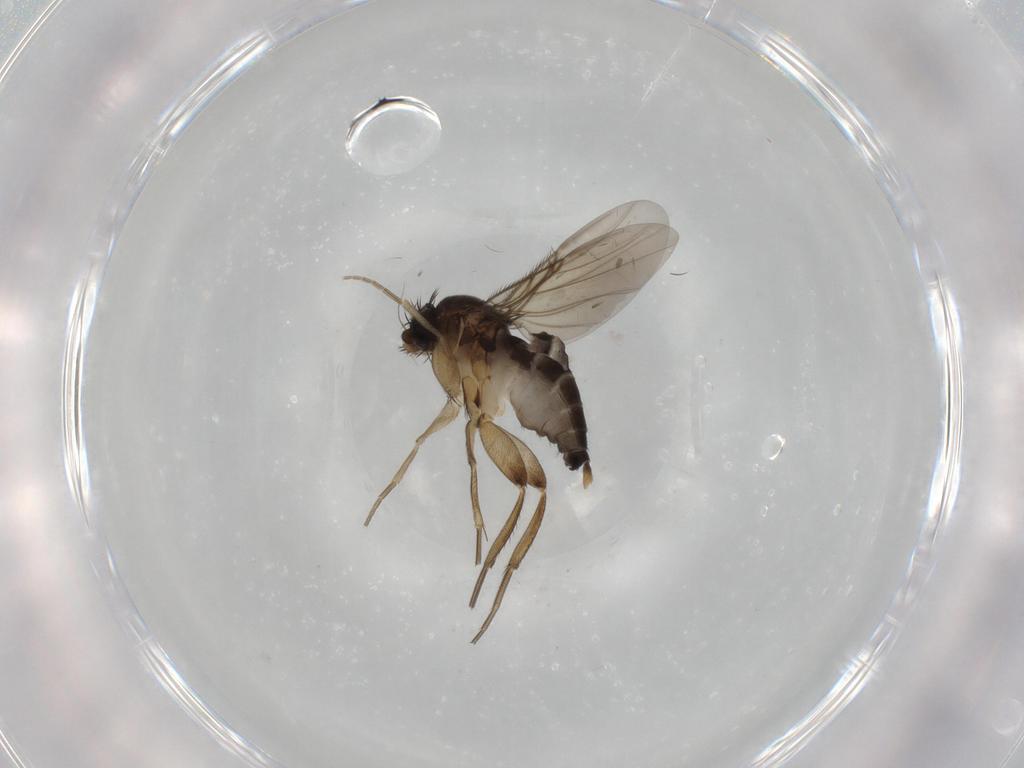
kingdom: Animalia
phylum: Arthropoda
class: Insecta
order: Diptera
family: Phoridae
